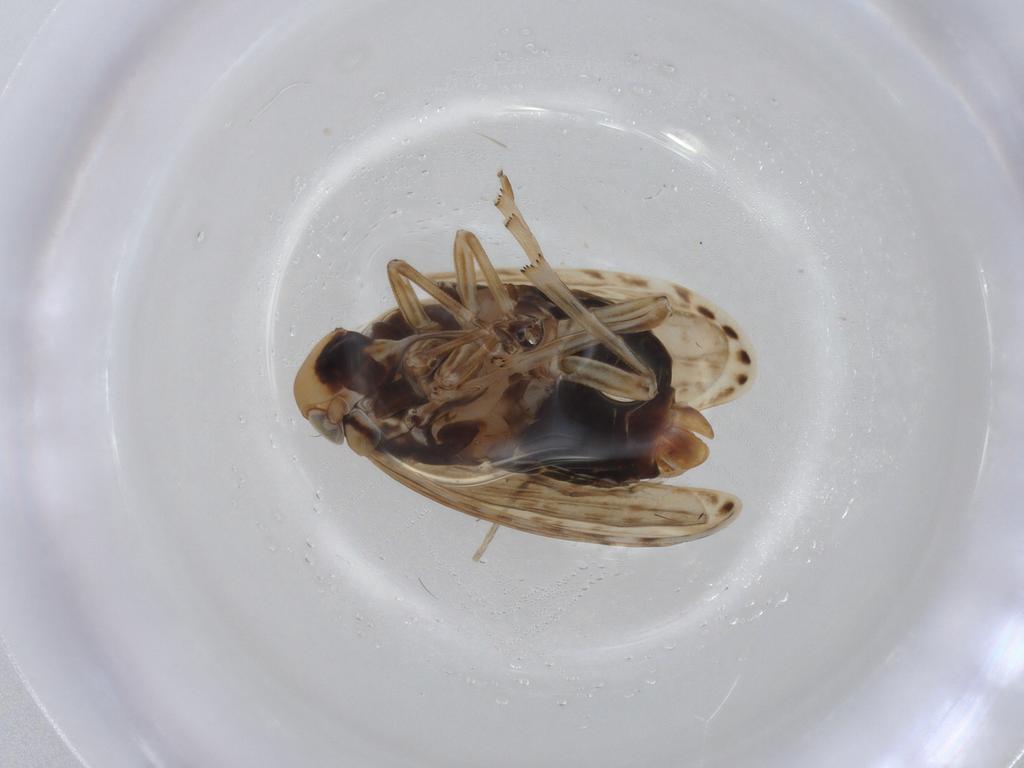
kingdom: Animalia
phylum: Arthropoda
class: Insecta
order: Hemiptera
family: Achilidae
